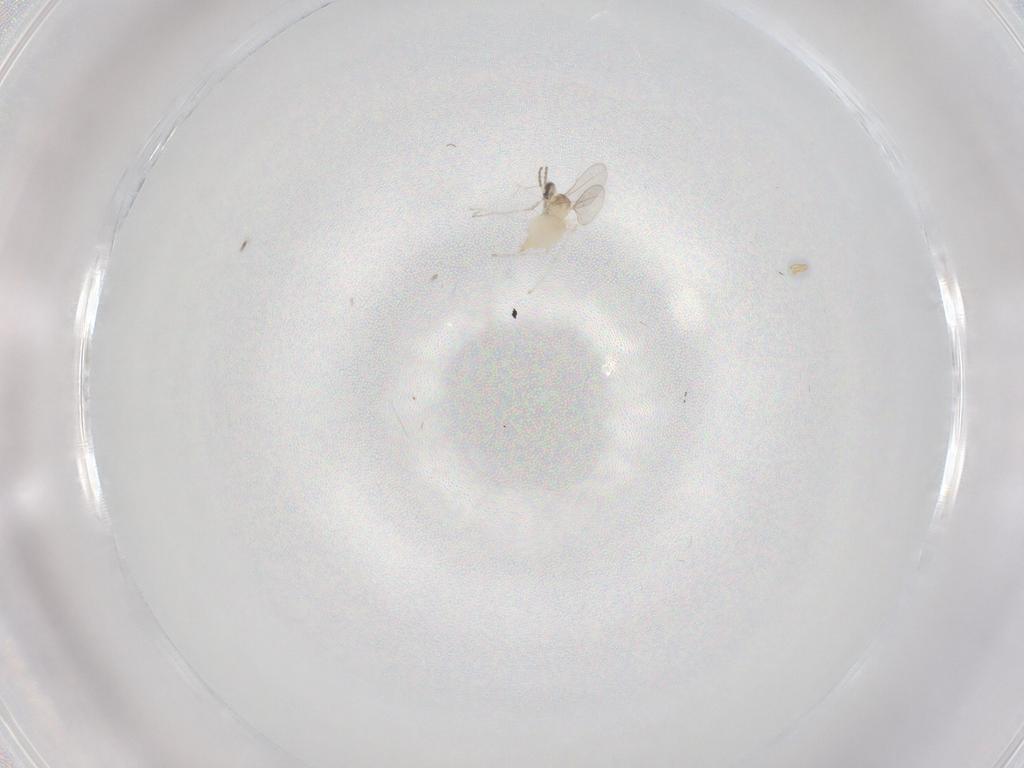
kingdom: Animalia
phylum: Arthropoda
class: Insecta
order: Diptera
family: Cecidomyiidae
